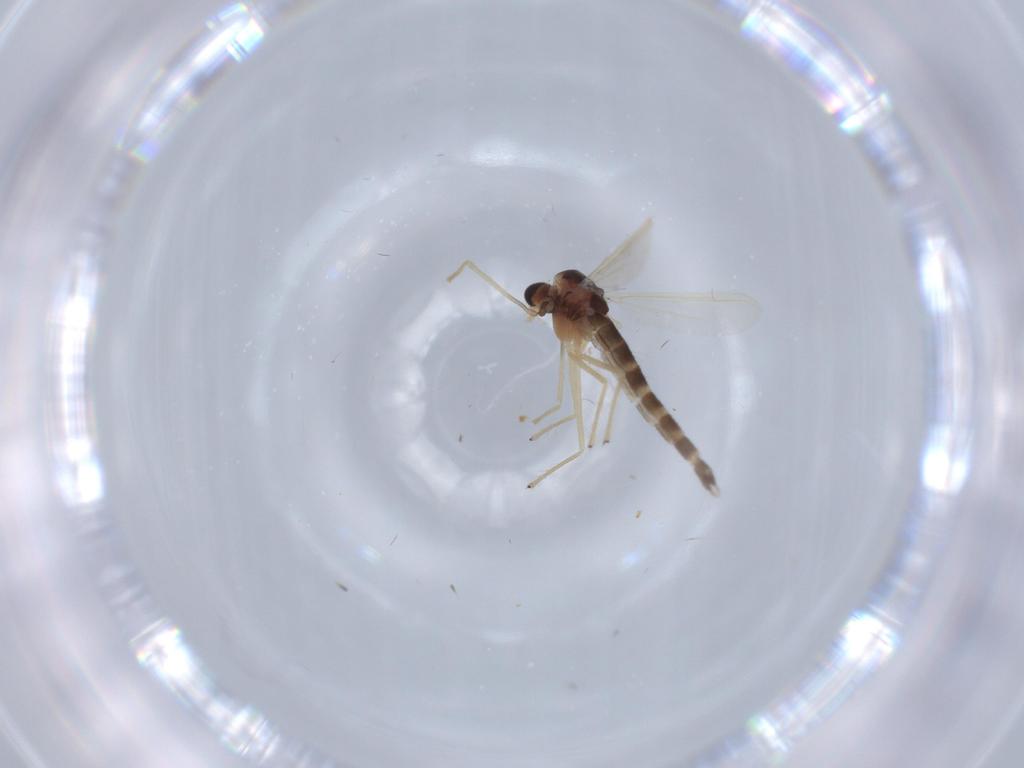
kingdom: Animalia
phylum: Arthropoda
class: Insecta
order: Diptera
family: Chironomidae
